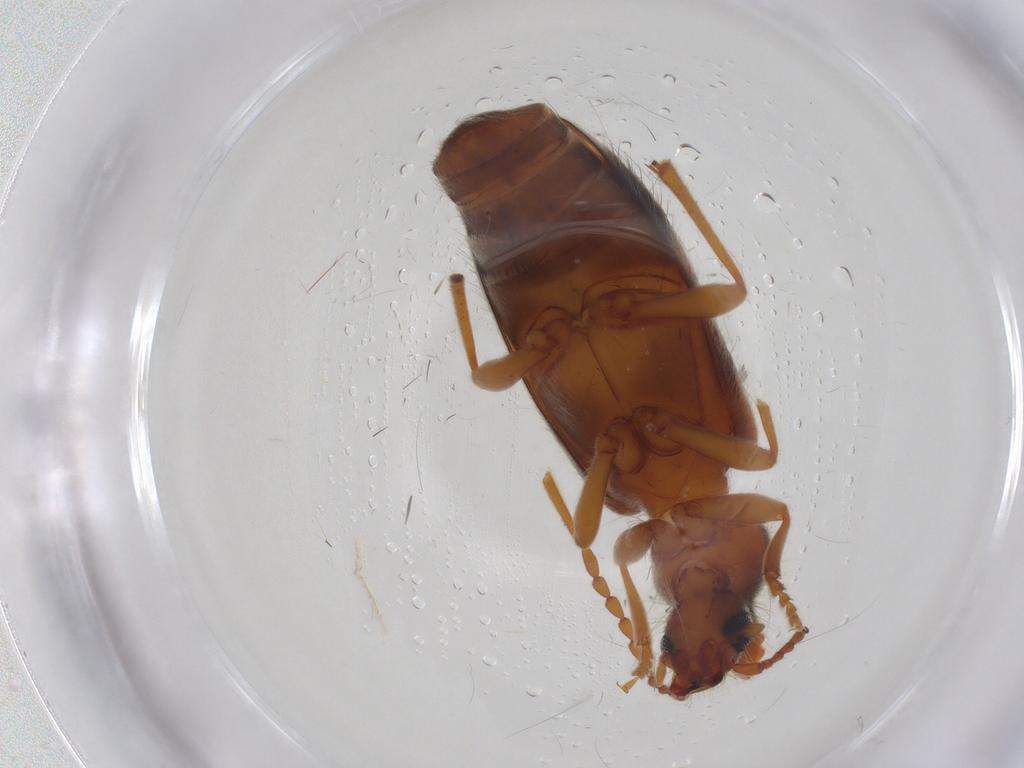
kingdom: Animalia
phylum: Arthropoda
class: Insecta
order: Coleoptera
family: Anthicidae
